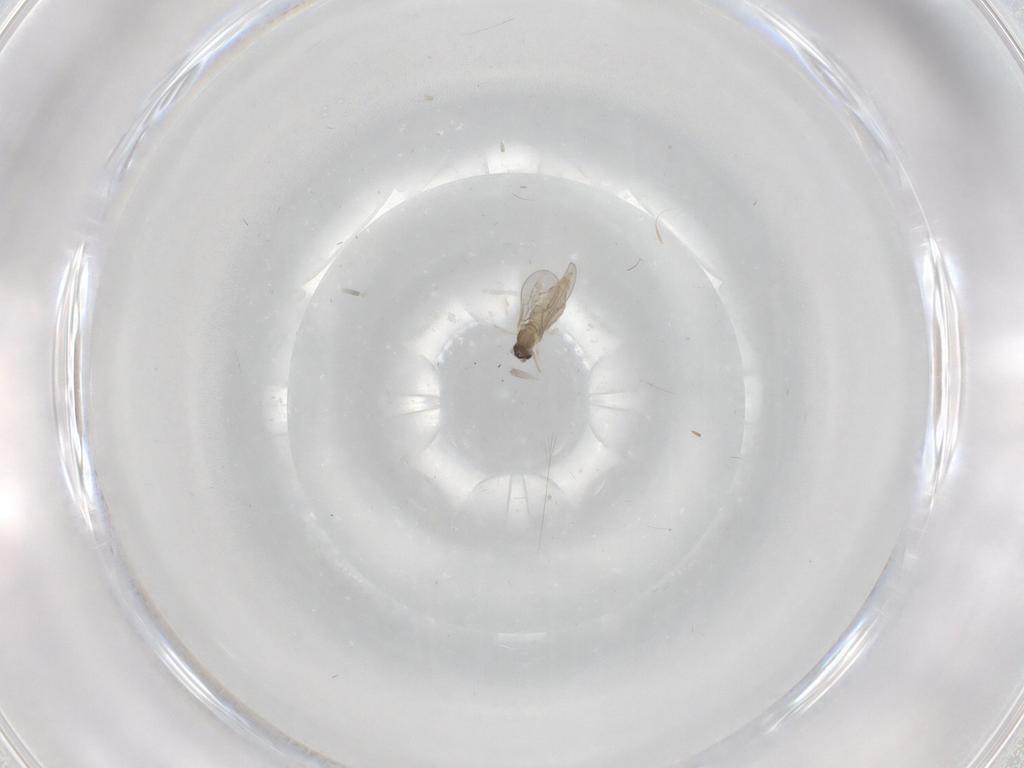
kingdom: Animalia
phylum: Arthropoda
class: Insecta
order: Diptera
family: Cecidomyiidae
